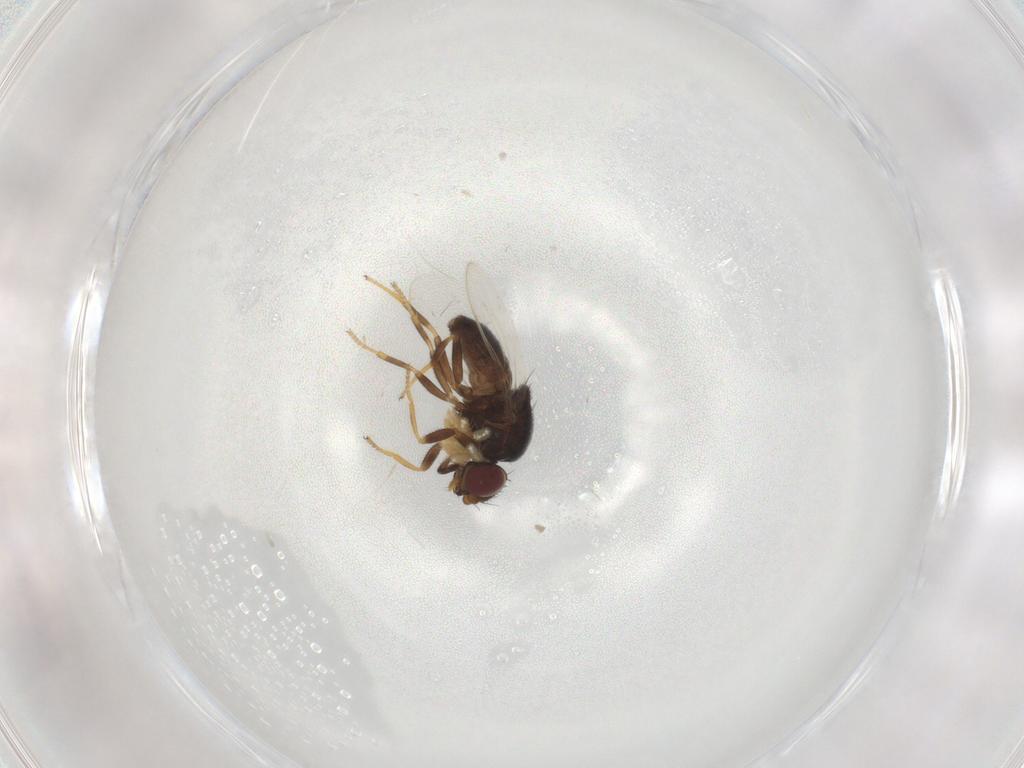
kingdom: Animalia
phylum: Arthropoda
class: Insecta
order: Diptera
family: Chloropidae
